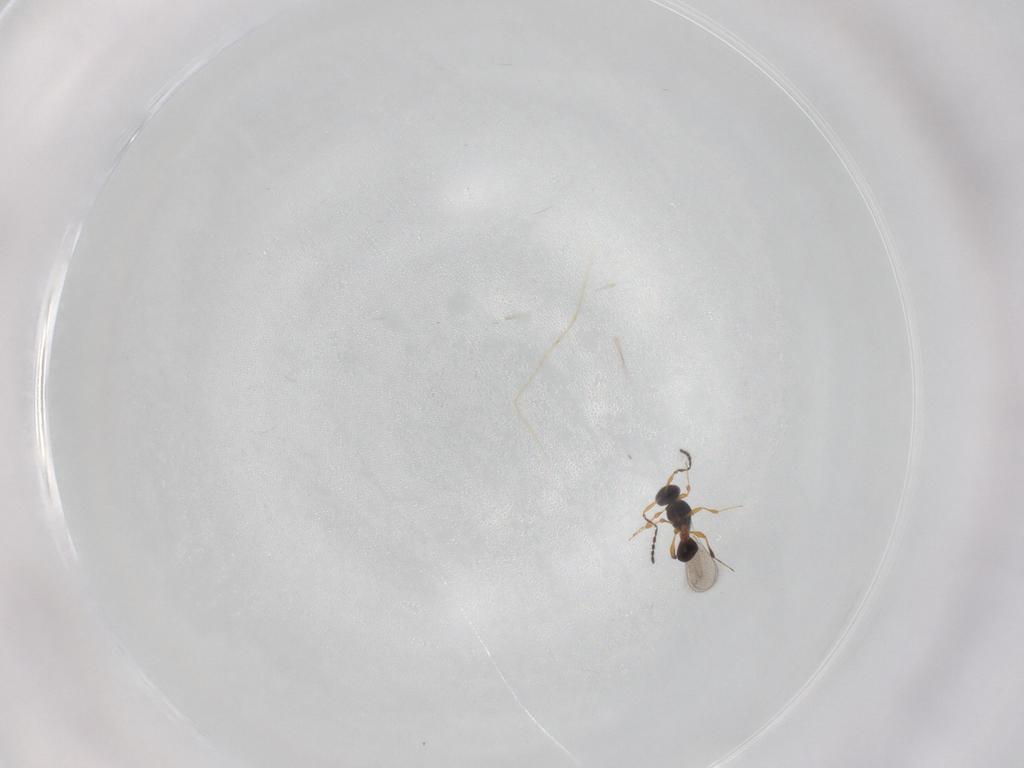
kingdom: Animalia
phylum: Arthropoda
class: Insecta
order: Hymenoptera
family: Platygastridae
